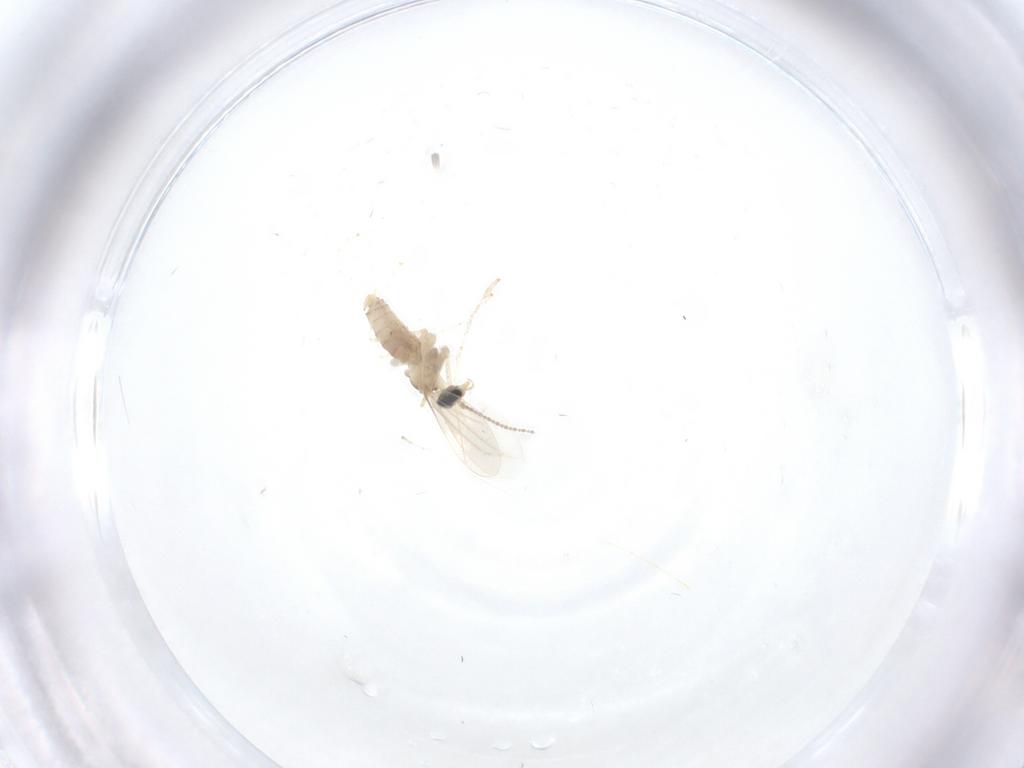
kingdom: Animalia
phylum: Arthropoda
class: Insecta
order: Diptera
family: Cecidomyiidae
